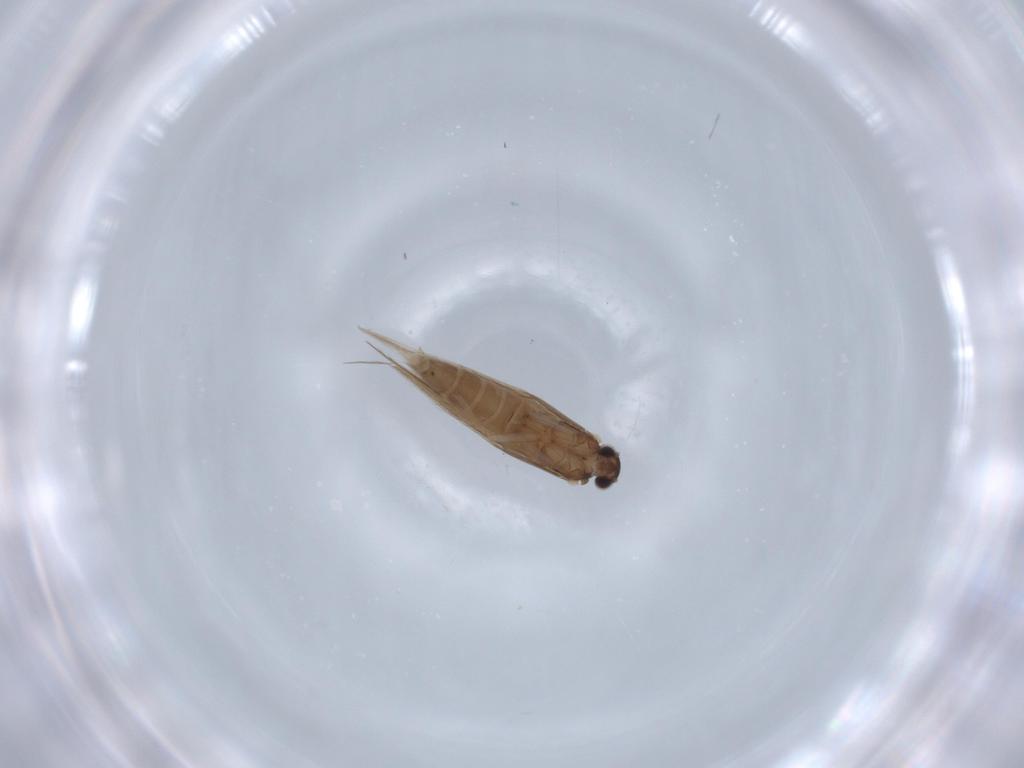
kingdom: Animalia
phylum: Arthropoda
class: Insecta
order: Trichoptera
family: Hydroptilidae
